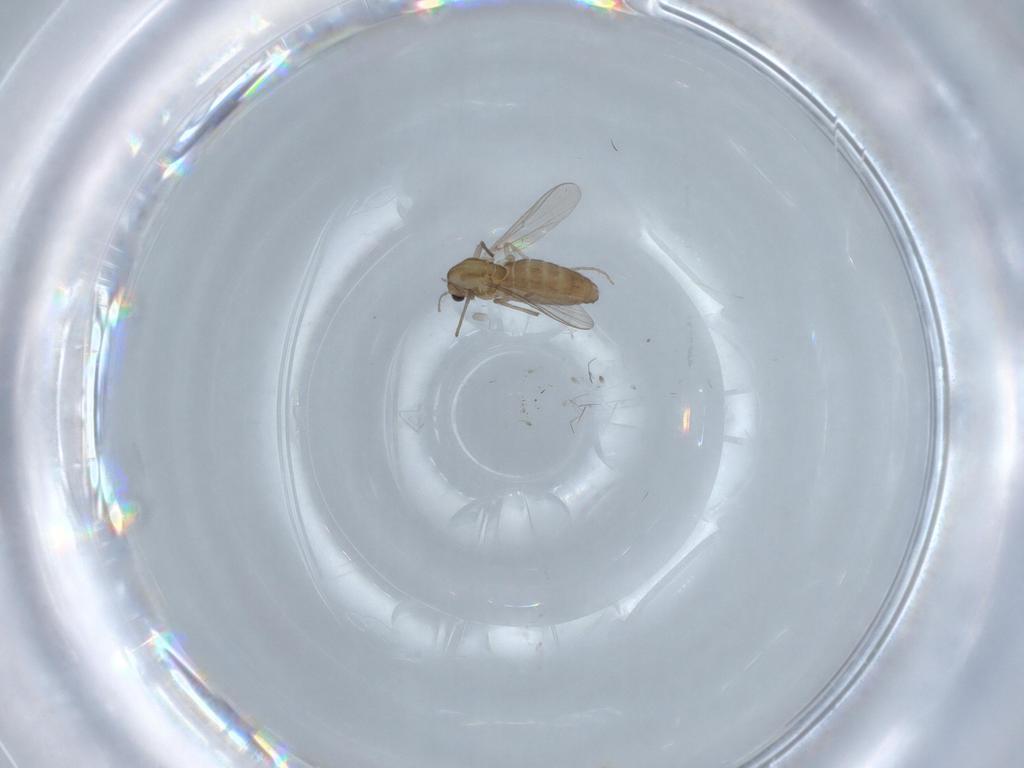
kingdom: Animalia
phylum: Arthropoda
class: Insecta
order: Diptera
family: Chironomidae
